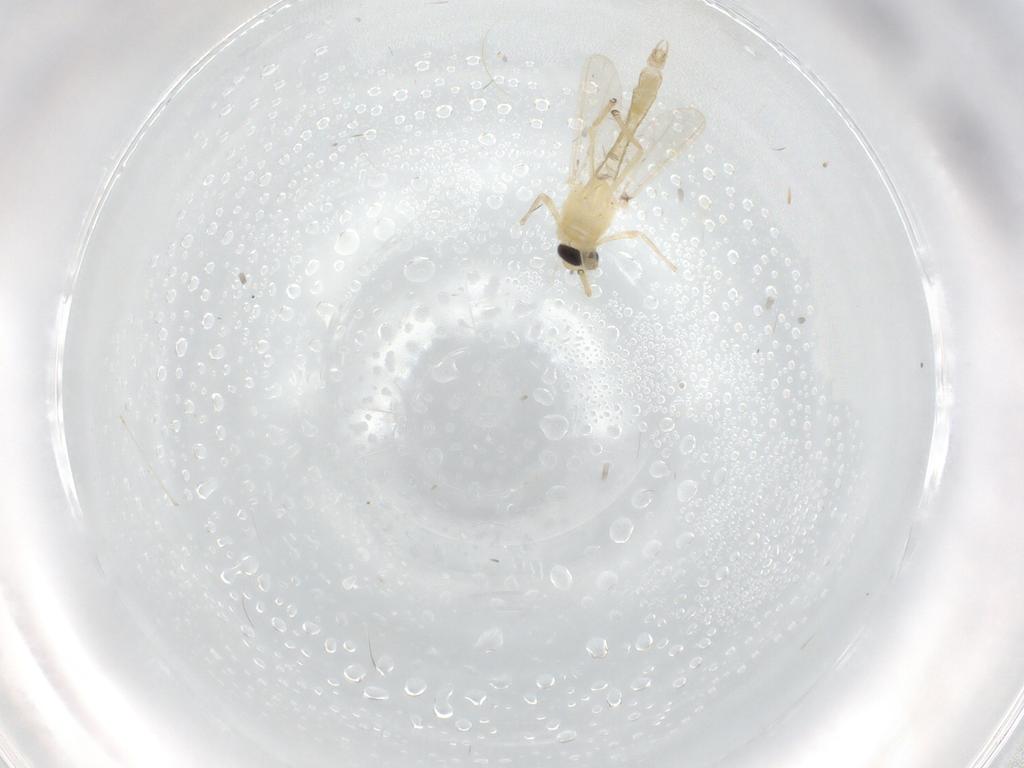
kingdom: Animalia
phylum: Arthropoda
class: Insecta
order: Diptera
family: Chironomidae
